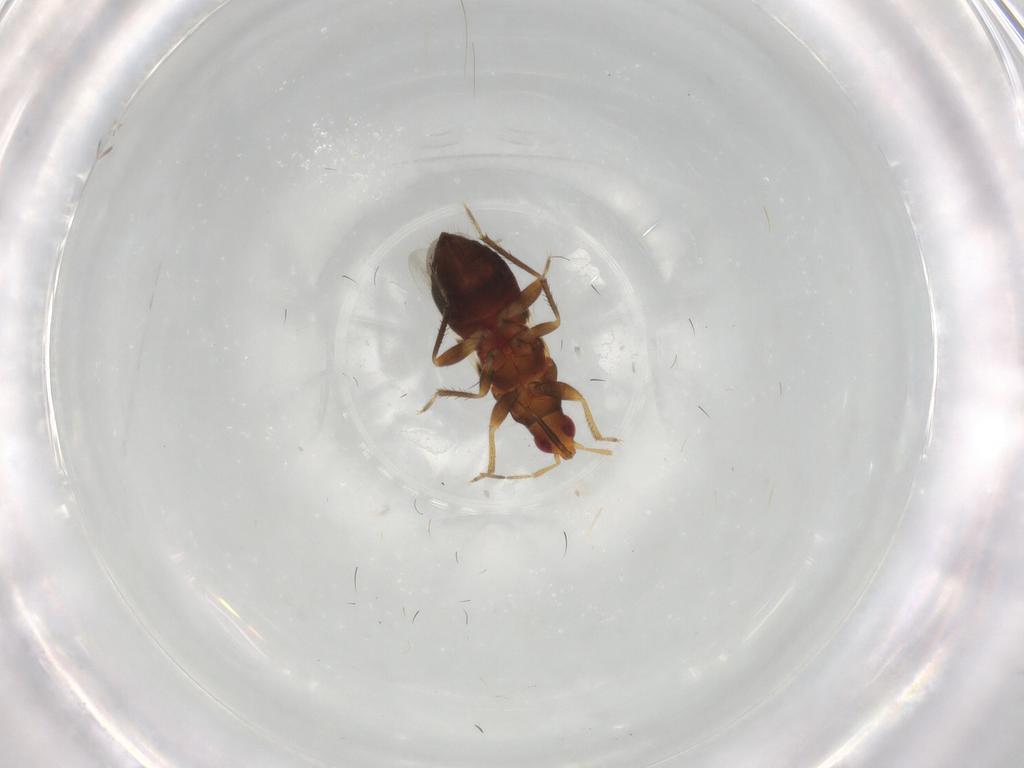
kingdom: Animalia
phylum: Arthropoda
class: Insecta
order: Hemiptera
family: Anthocoridae
